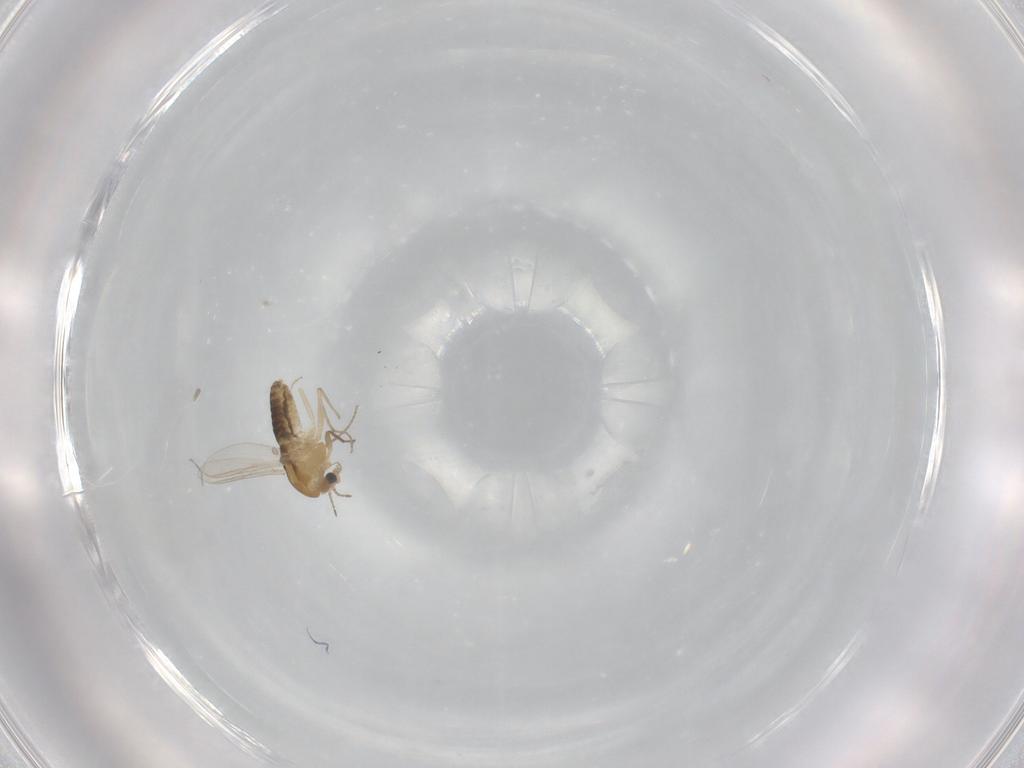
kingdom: Animalia
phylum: Arthropoda
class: Insecta
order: Diptera
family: Chironomidae
